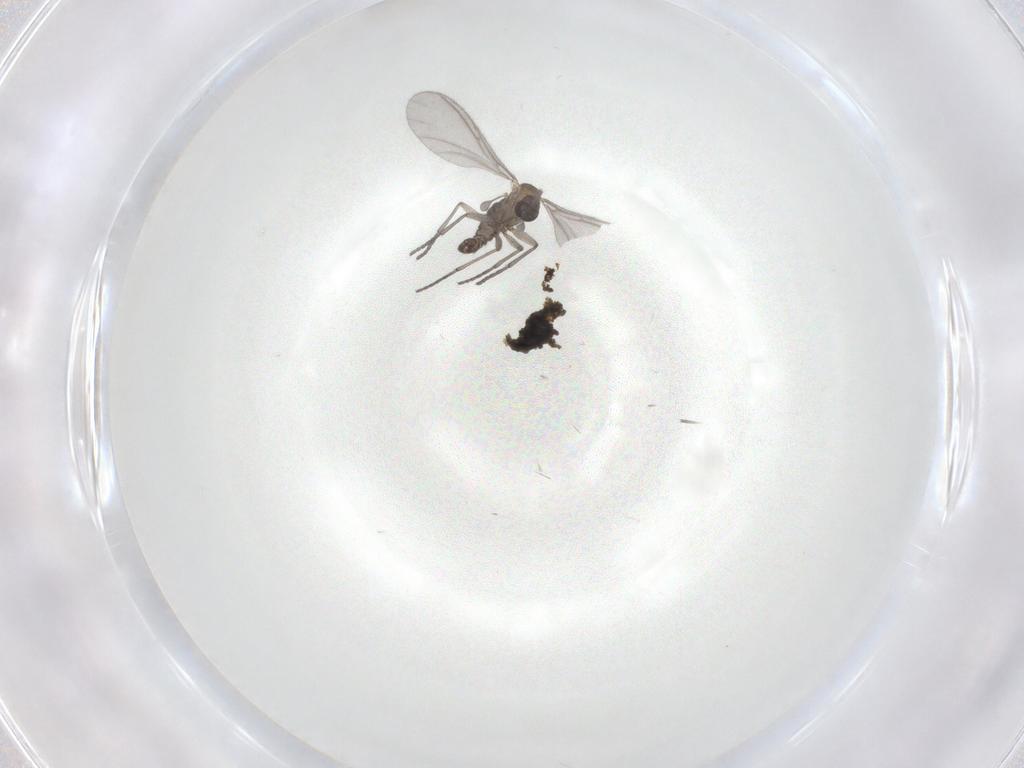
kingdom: Animalia
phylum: Arthropoda
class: Insecta
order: Diptera
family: Sciaridae
